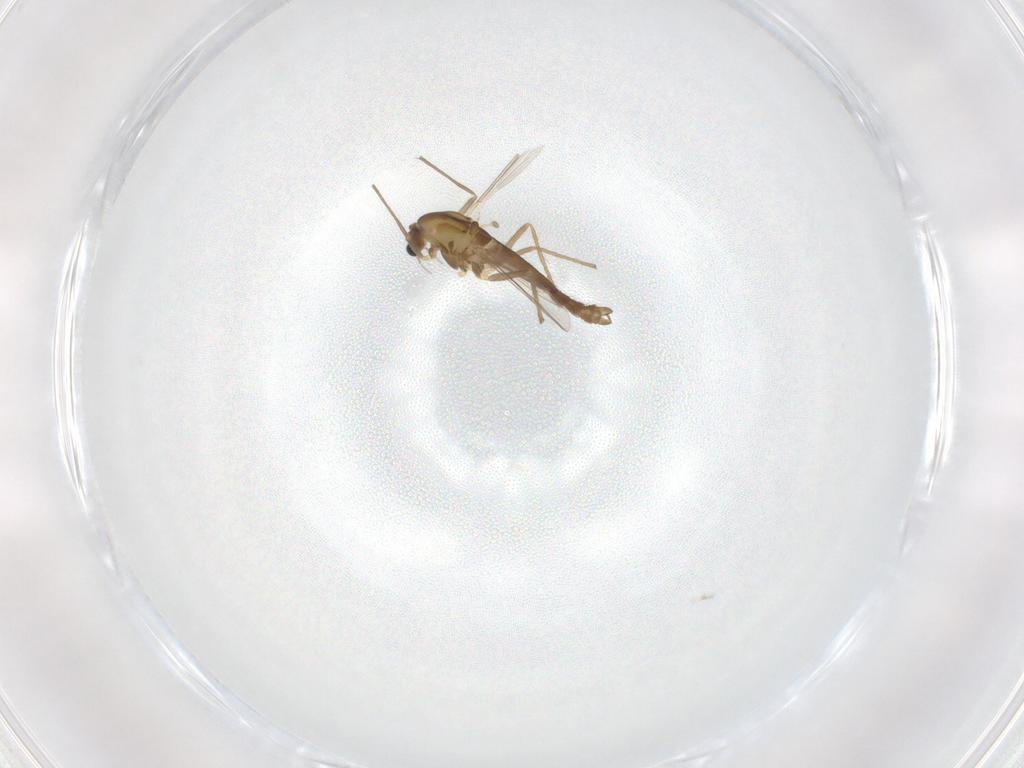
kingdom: Animalia
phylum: Arthropoda
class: Insecta
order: Diptera
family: Chironomidae
